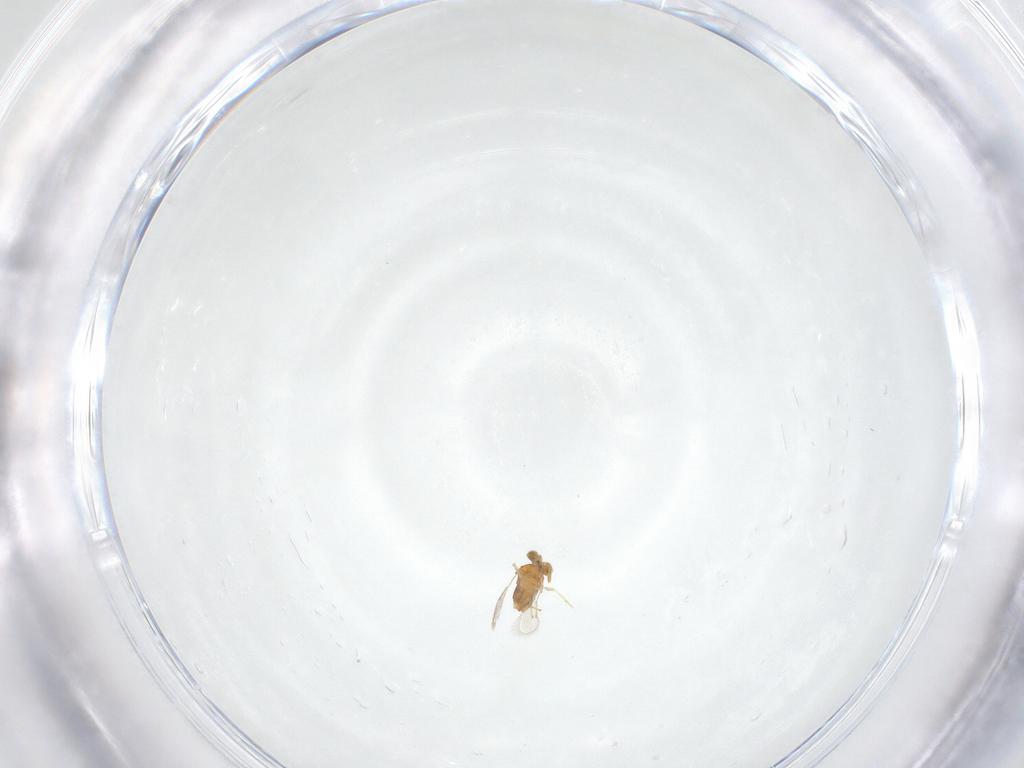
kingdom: Animalia
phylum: Arthropoda
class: Insecta
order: Hymenoptera
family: Aphelinidae
